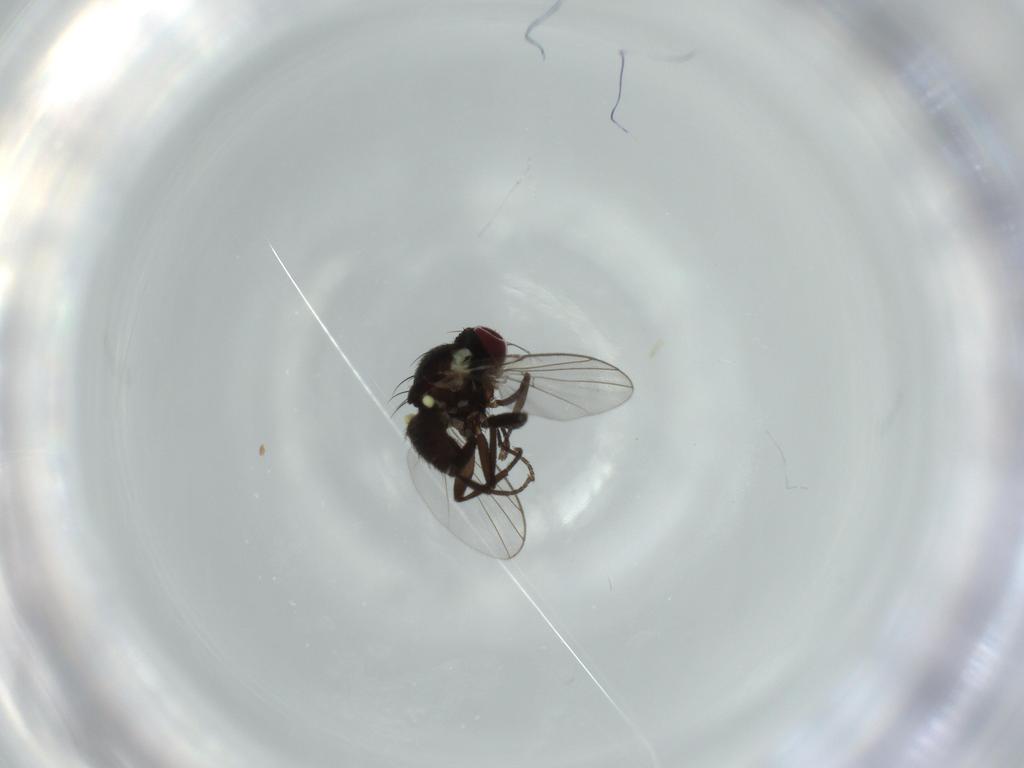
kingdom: Animalia
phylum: Arthropoda
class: Insecta
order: Diptera
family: Agromyzidae
